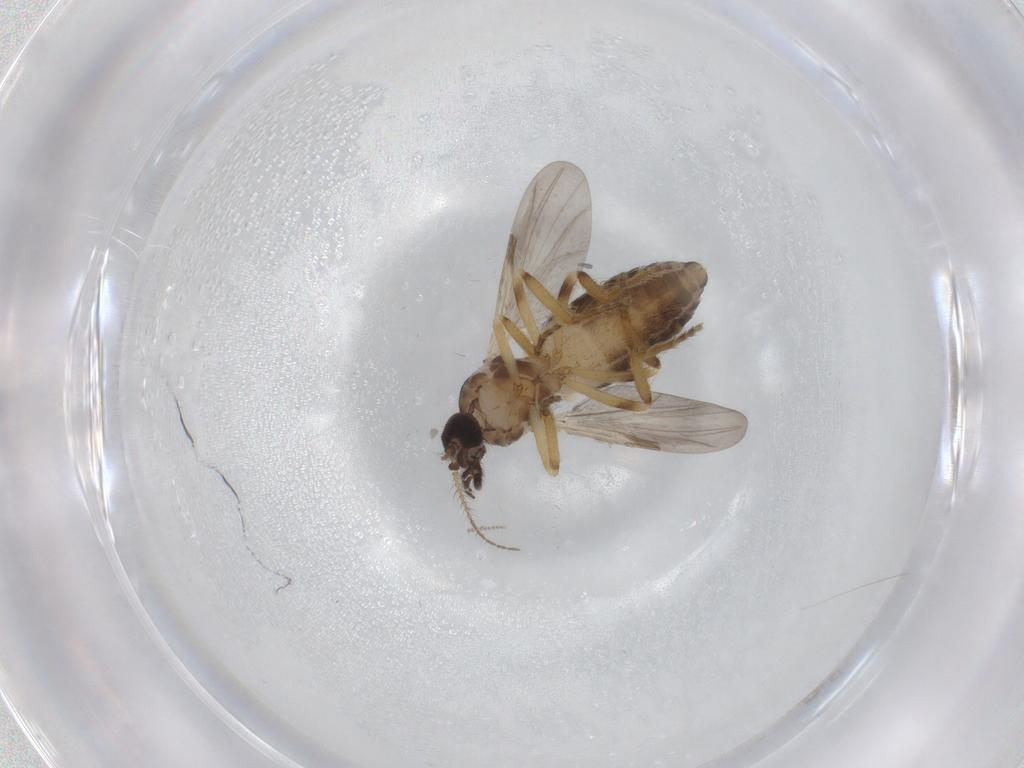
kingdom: Animalia
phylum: Arthropoda
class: Insecta
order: Diptera
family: Ceratopogonidae
